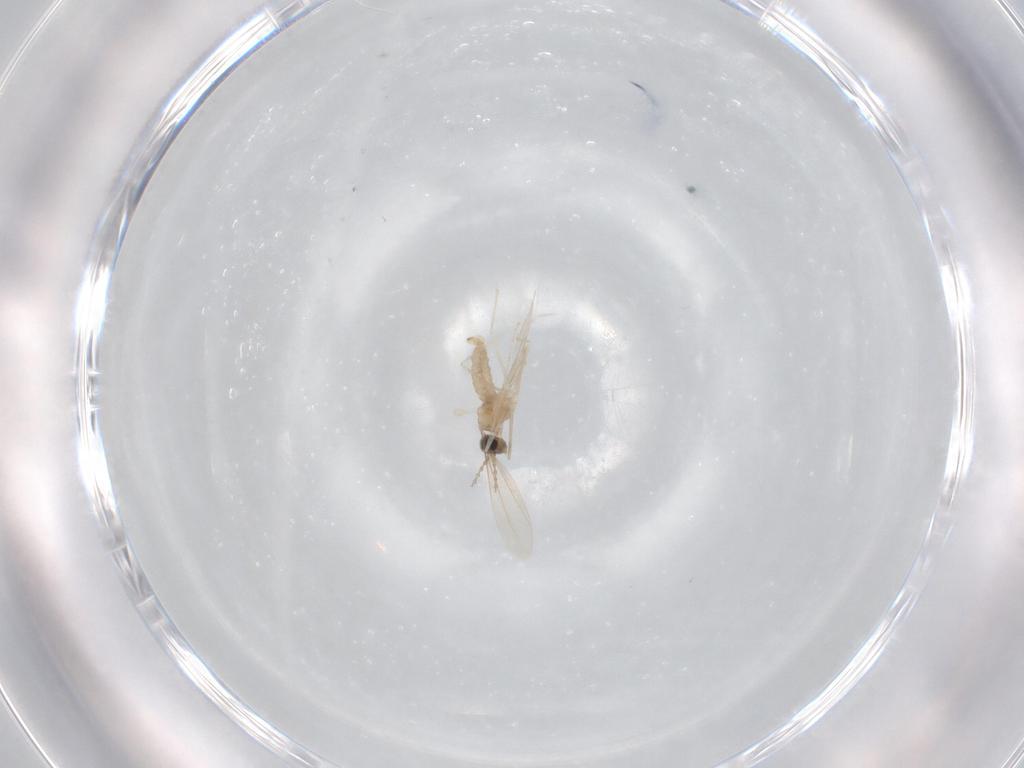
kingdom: Animalia
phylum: Arthropoda
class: Insecta
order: Diptera
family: Cecidomyiidae
